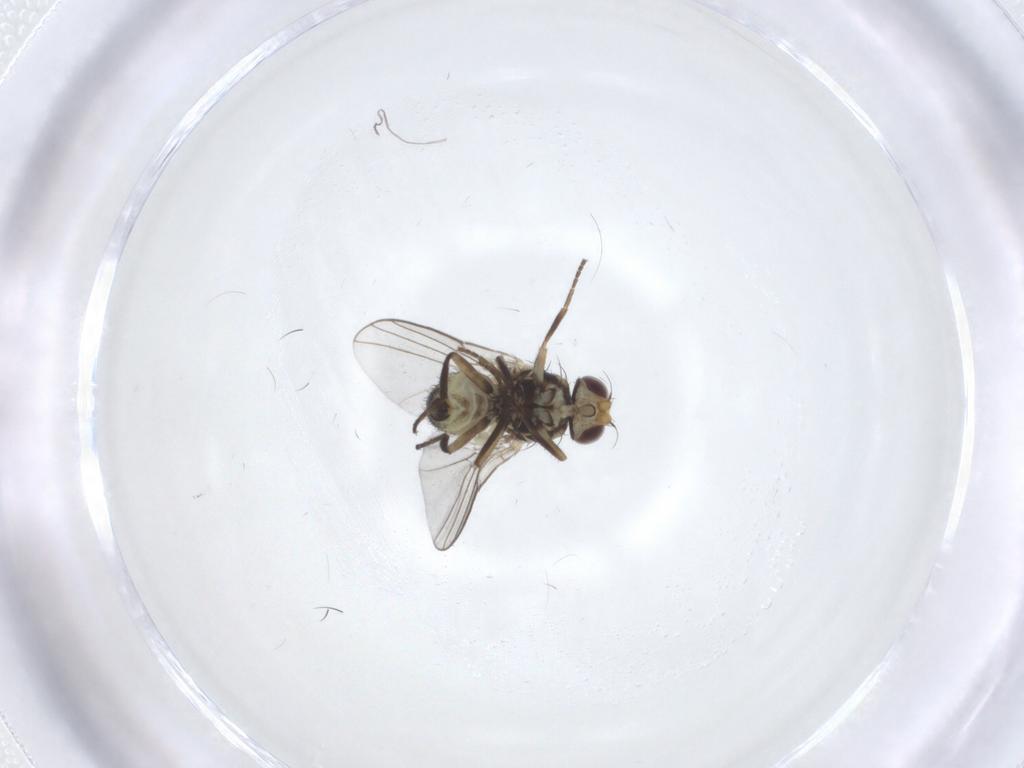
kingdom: Animalia
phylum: Arthropoda
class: Insecta
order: Diptera
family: Agromyzidae
